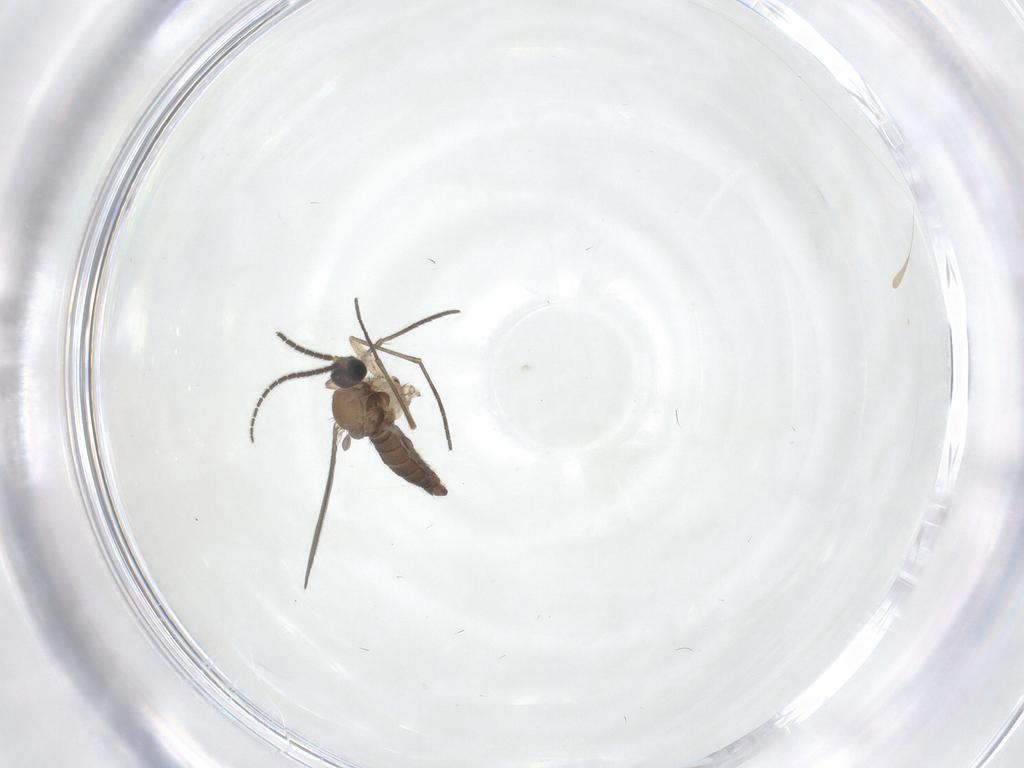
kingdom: Animalia
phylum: Arthropoda
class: Insecta
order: Diptera
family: Sciaridae
